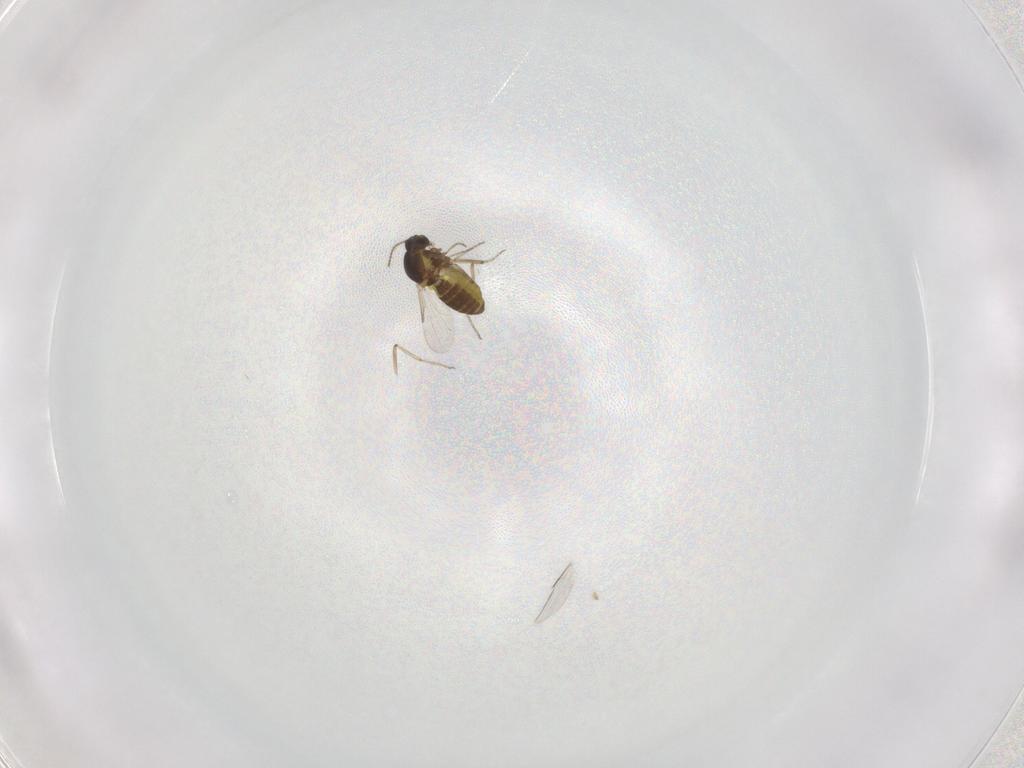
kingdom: Animalia
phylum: Arthropoda
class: Insecta
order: Diptera
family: Ceratopogonidae
